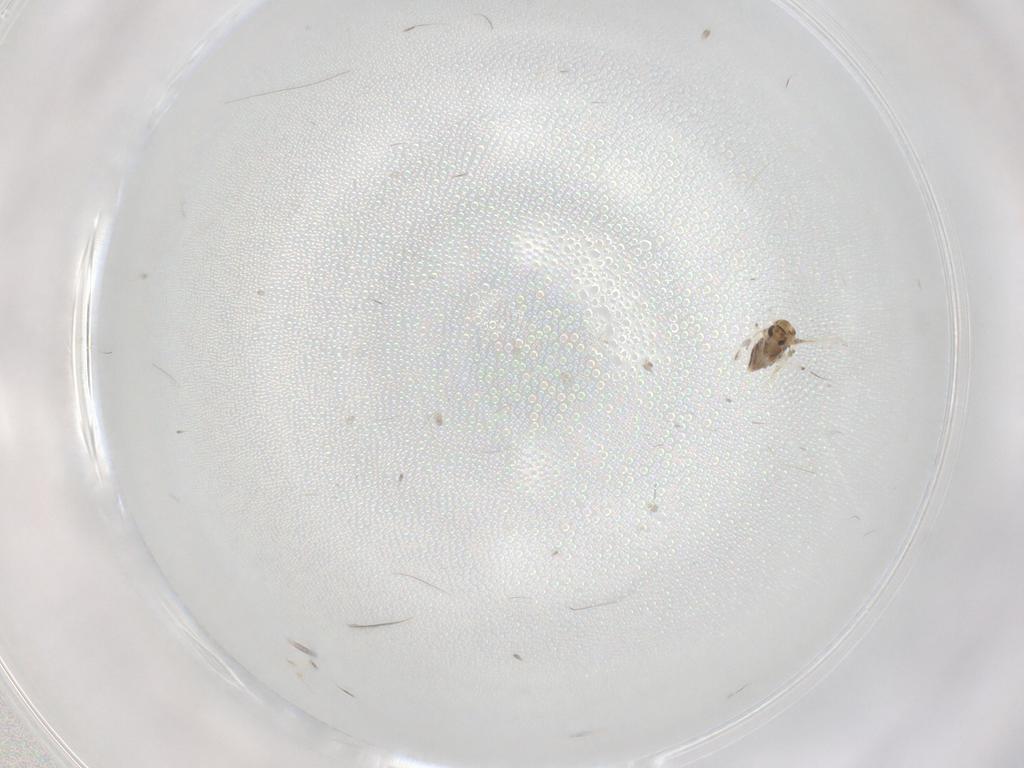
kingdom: Animalia
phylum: Arthropoda
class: Insecta
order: Diptera
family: Chironomidae
